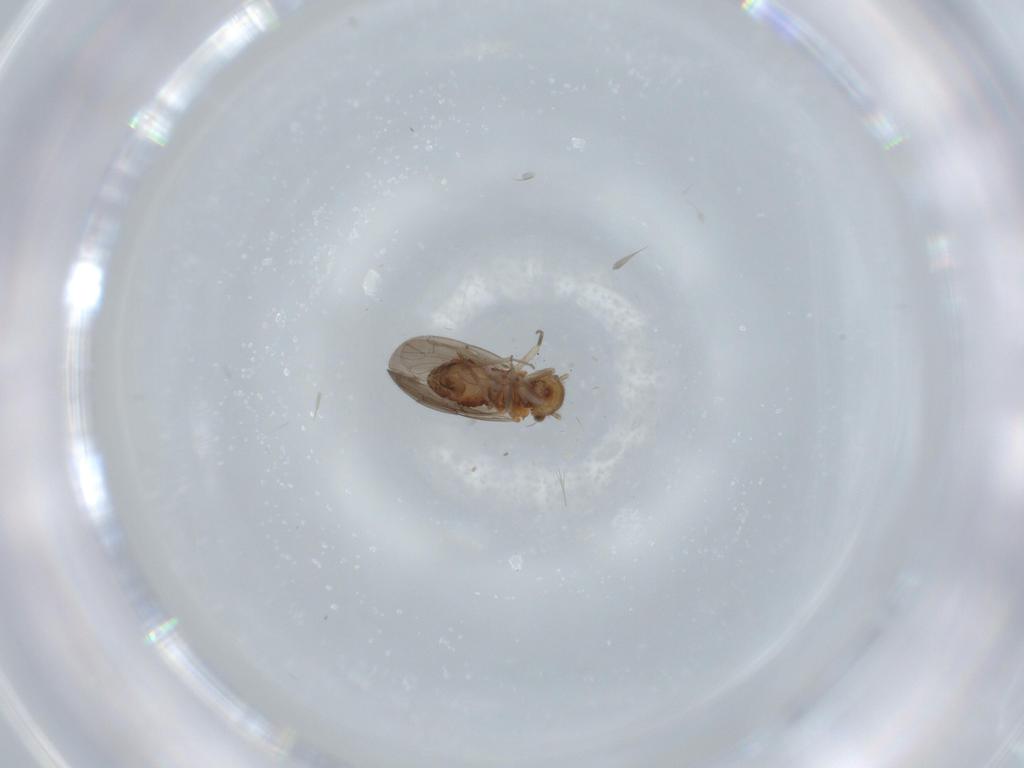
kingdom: Animalia
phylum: Arthropoda
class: Insecta
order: Psocodea
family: Ectopsocidae
